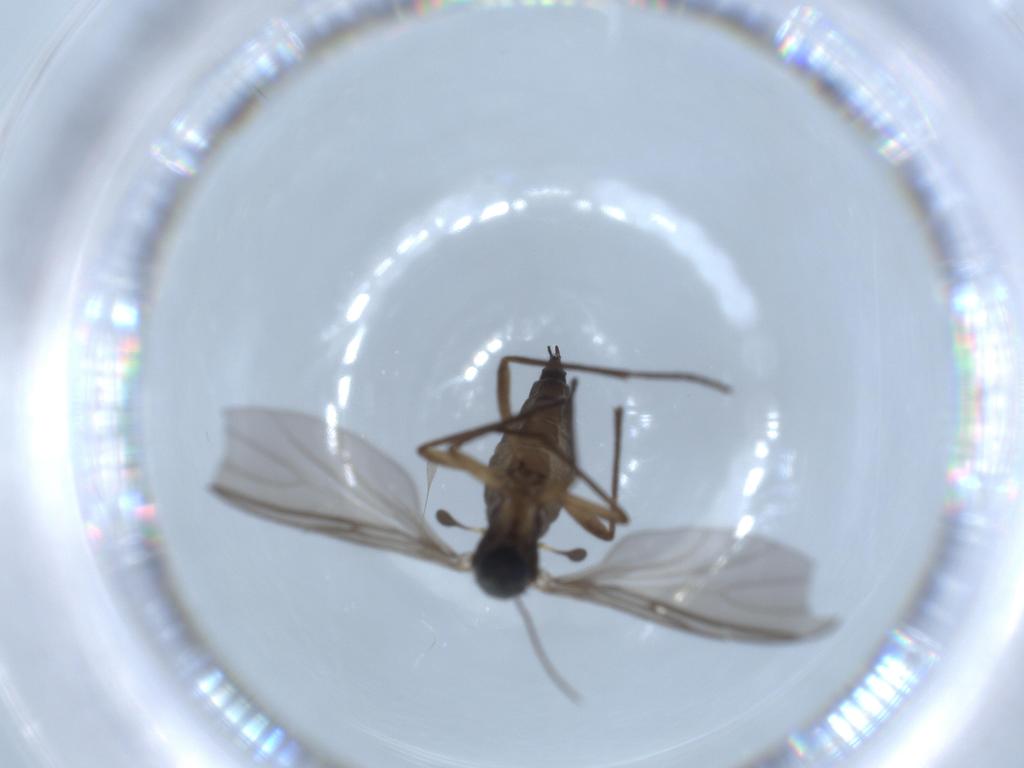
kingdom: Animalia
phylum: Arthropoda
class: Insecta
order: Diptera
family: Sciaridae
